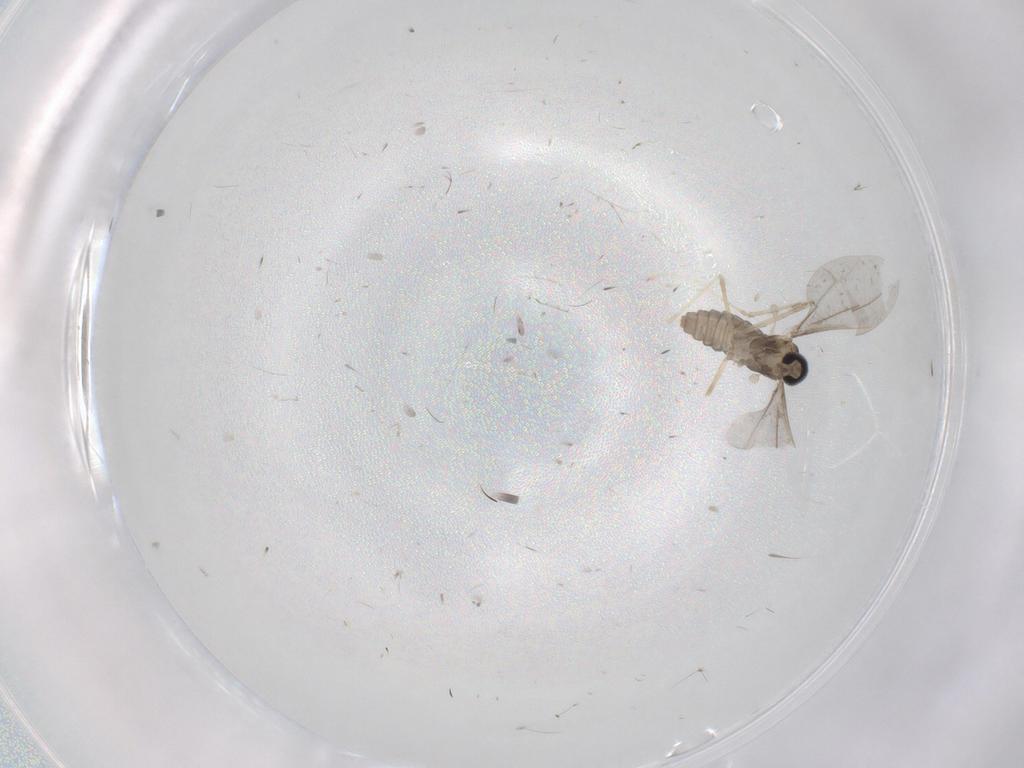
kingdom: Animalia
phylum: Arthropoda
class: Insecta
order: Diptera
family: Cecidomyiidae
